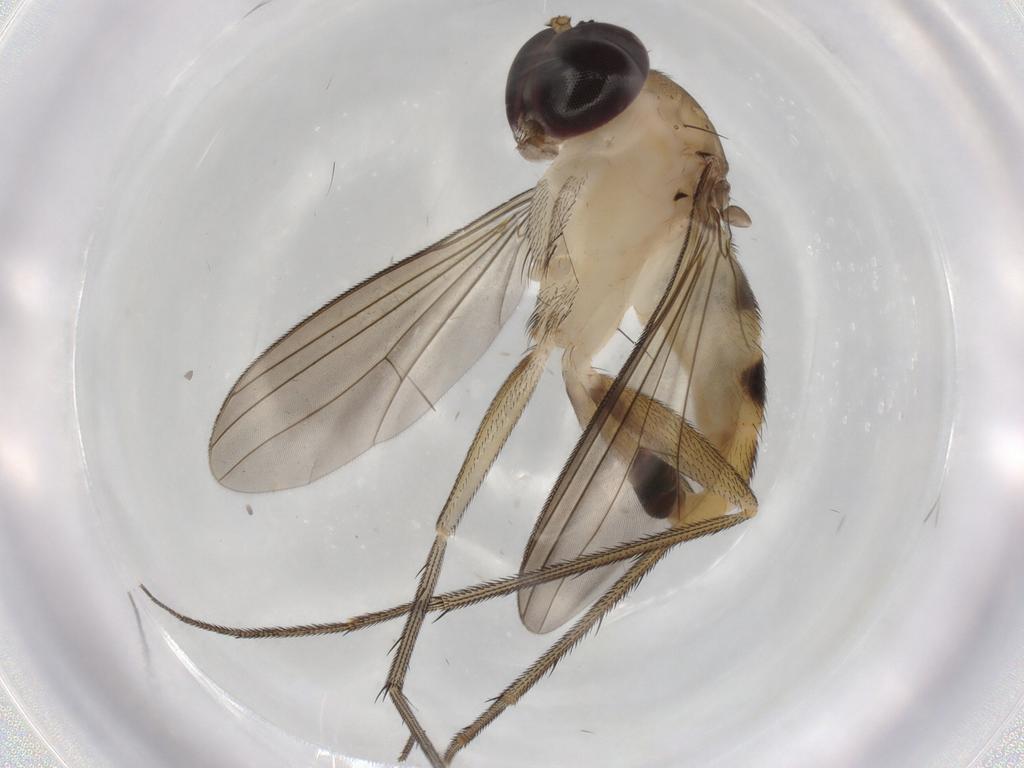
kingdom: Animalia
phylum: Arthropoda
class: Insecta
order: Diptera
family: Dolichopodidae
